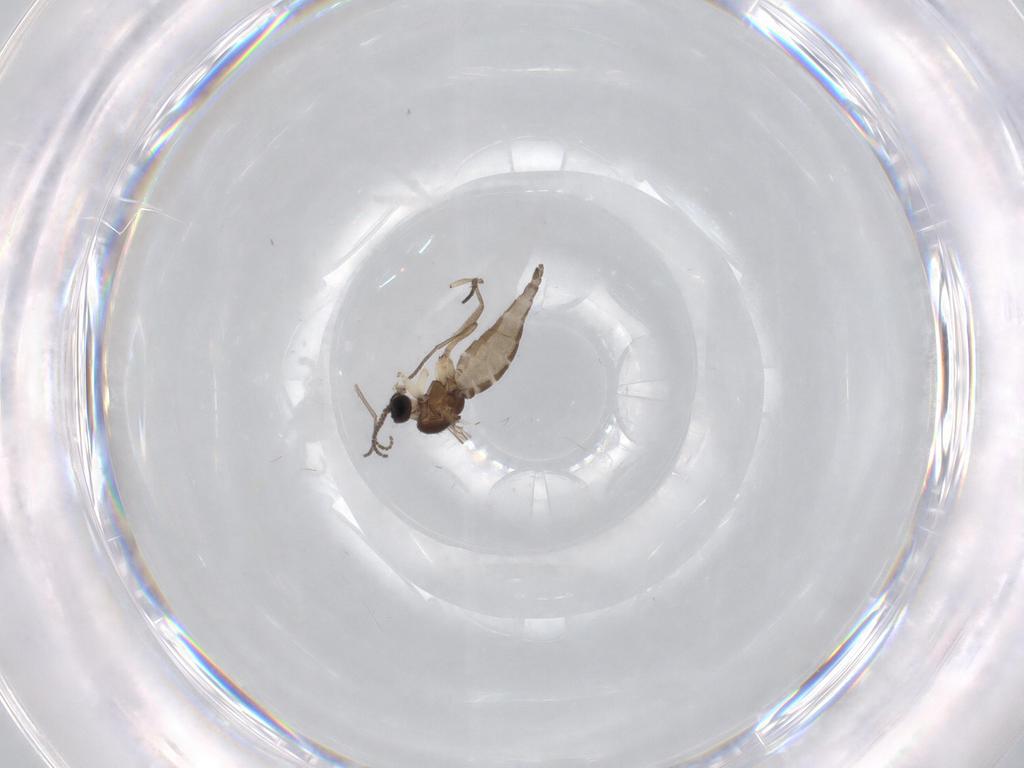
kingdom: Animalia
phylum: Arthropoda
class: Insecta
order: Diptera
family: Sciaridae
